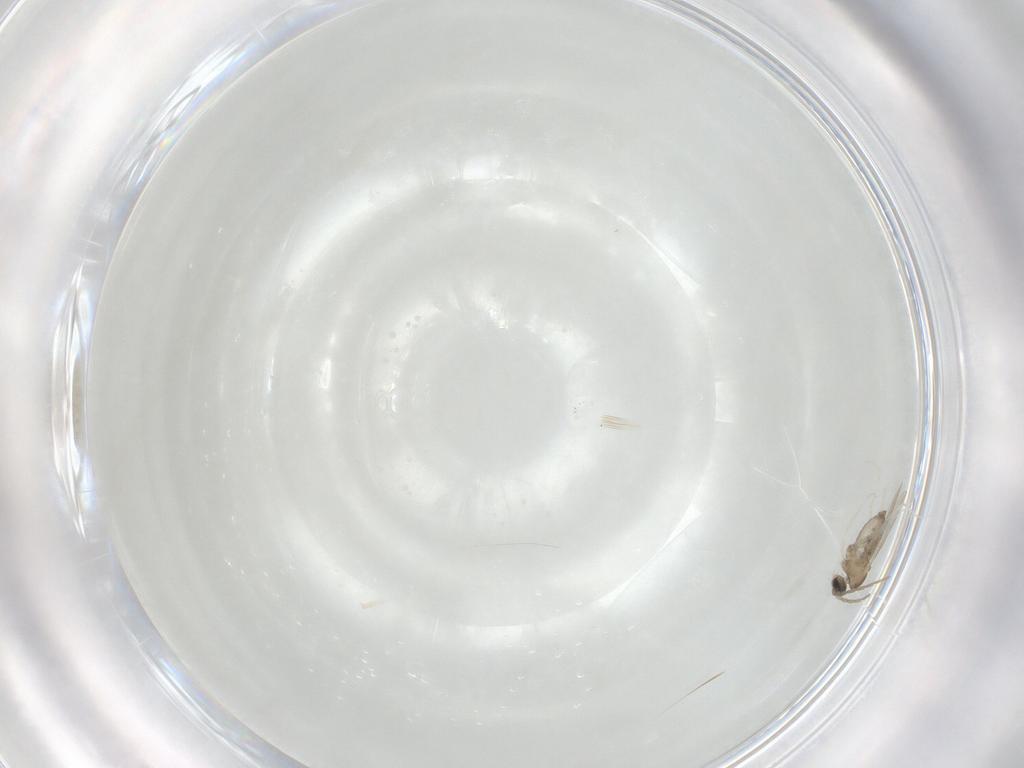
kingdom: Animalia
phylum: Arthropoda
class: Insecta
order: Diptera
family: Cecidomyiidae
